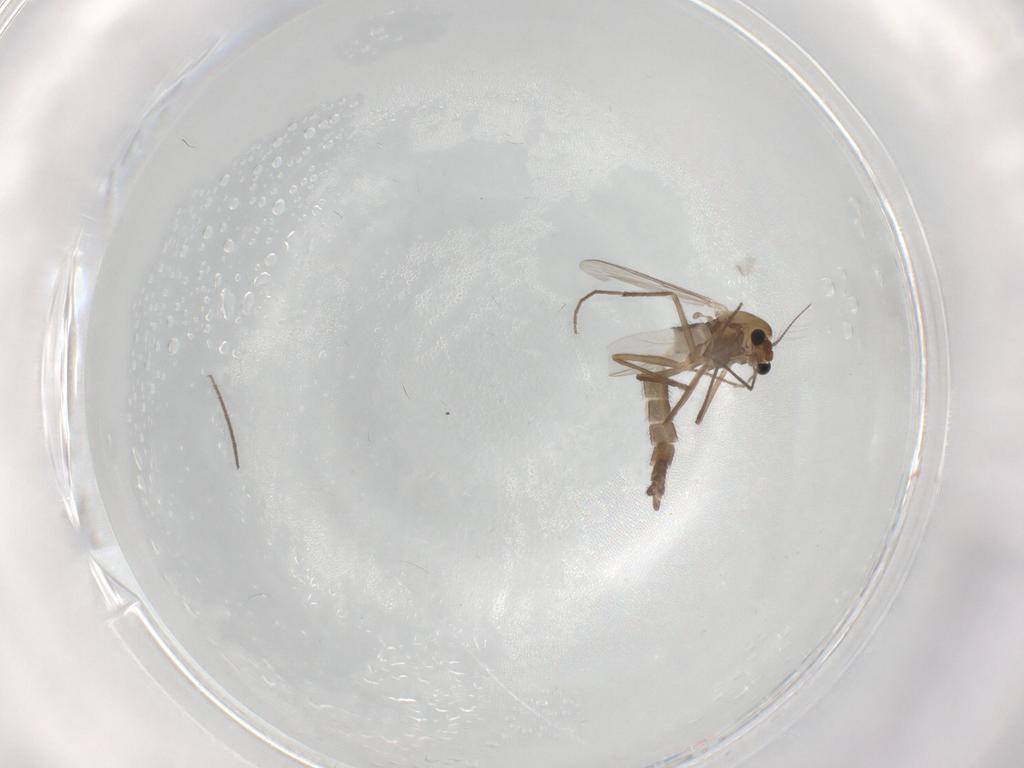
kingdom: Animalia
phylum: Arthropoda
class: Insecta
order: Diptera
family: Chironomidae
